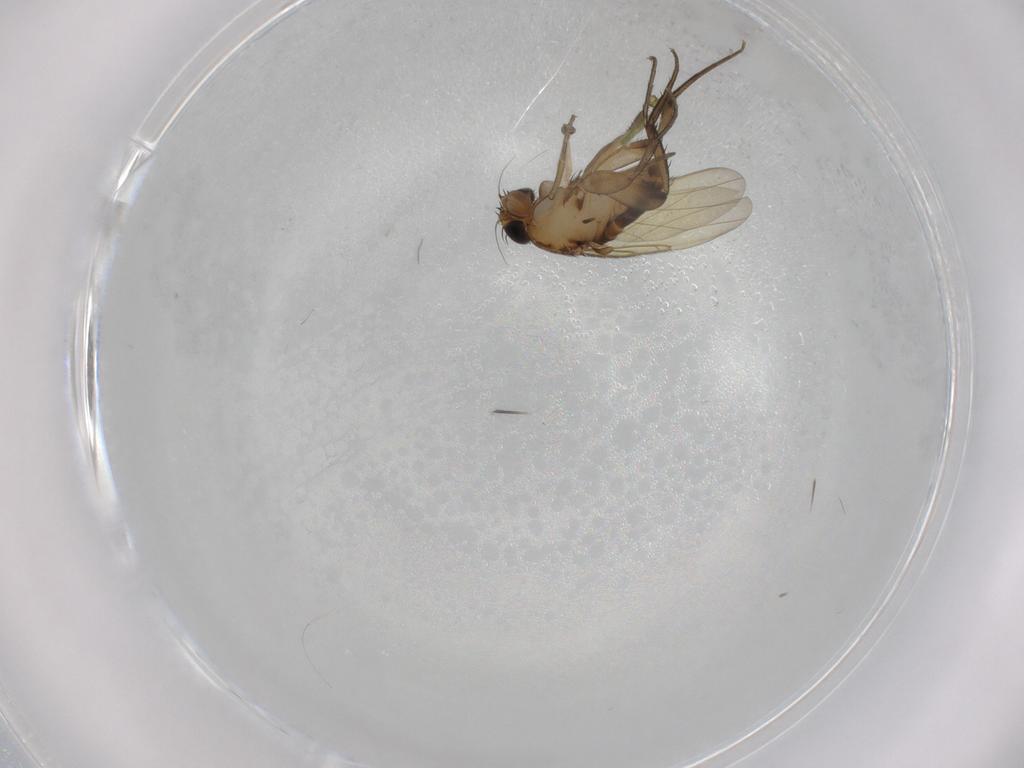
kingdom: Animalia
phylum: Arthropoda
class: Insecta
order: Diptera
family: Phoridae
